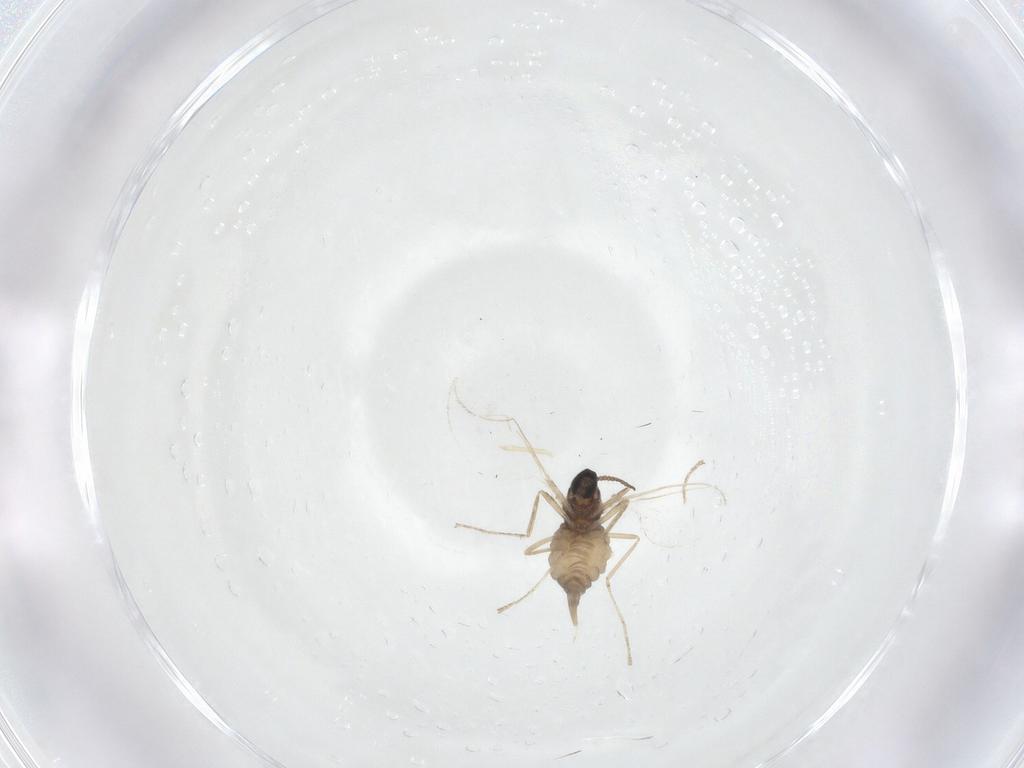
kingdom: Animalia
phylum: Arthropoda
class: Insecta
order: Diptera
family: Cecidomyiidae
